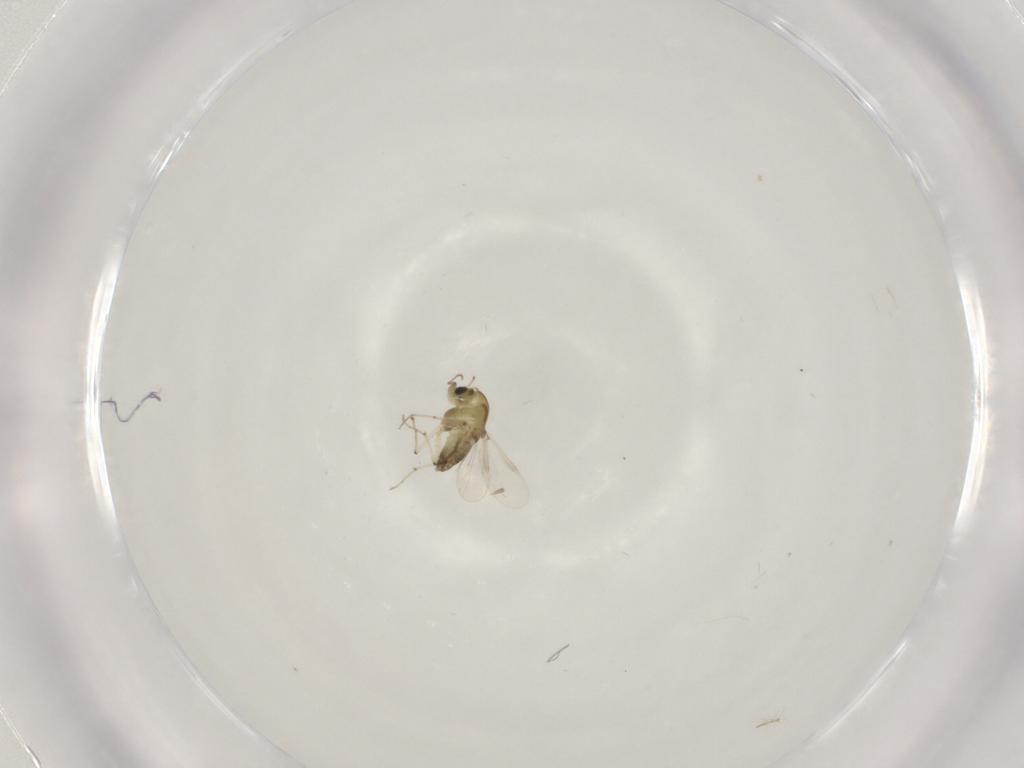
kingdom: Animalia
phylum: Arthropoda
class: Insecta
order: Diptera
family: Chironomidae
